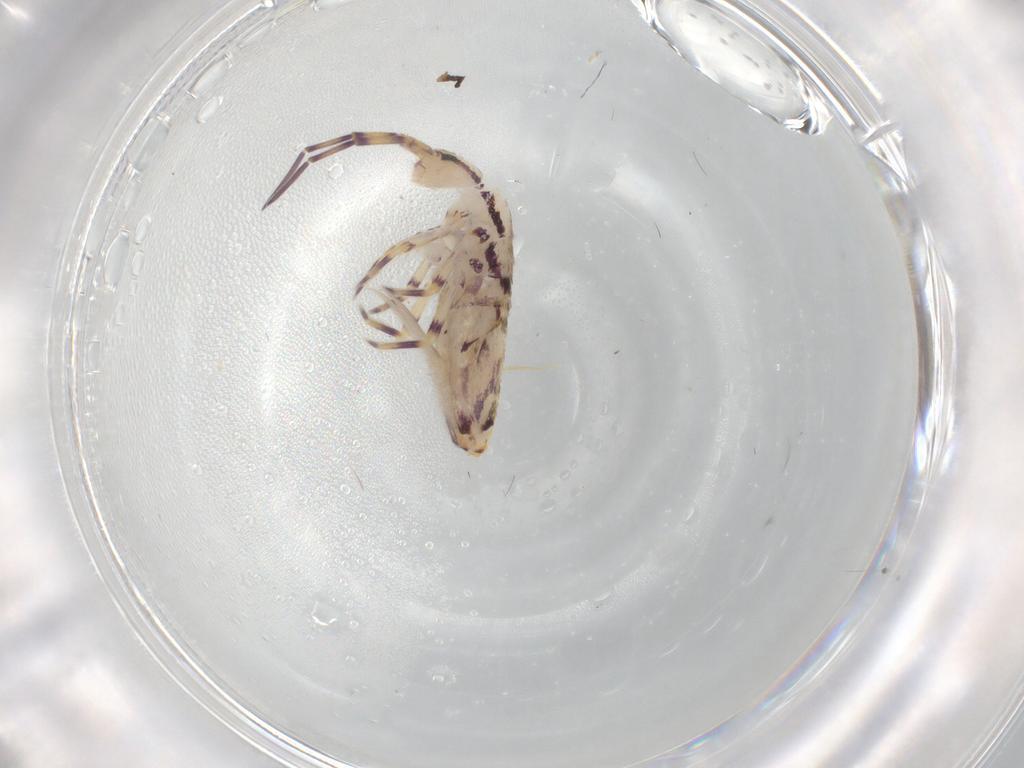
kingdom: Animalia
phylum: Arthropoda
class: Collembola
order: Entomobryomorpha
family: Entomobryidae
